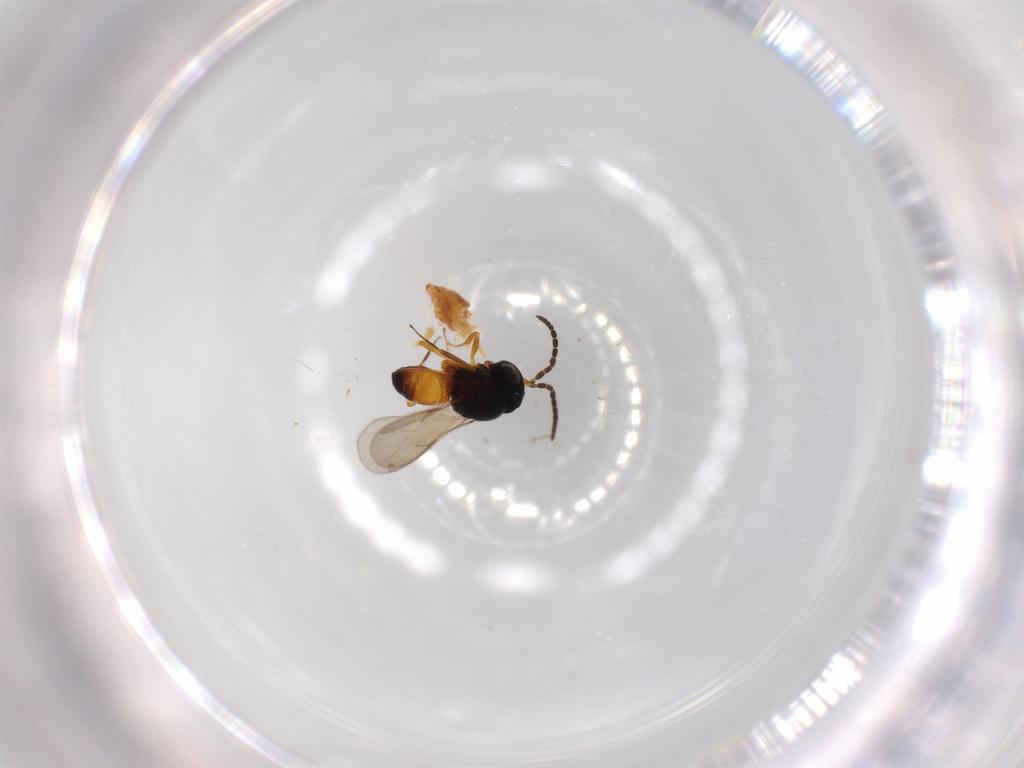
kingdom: Animalia
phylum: Arthropoda
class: Insecta
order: Hymenoptera
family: Scelionidae
